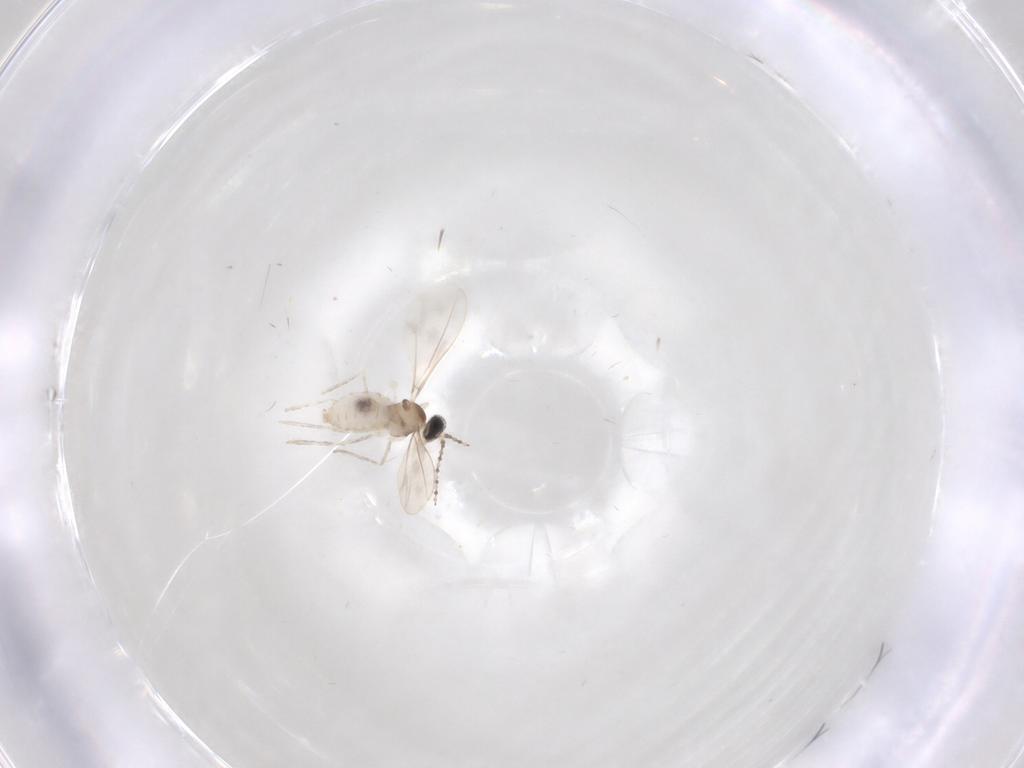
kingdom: Animalia
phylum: Arthropoda
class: Insecta
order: Diptera
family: Cecidomyiidae
